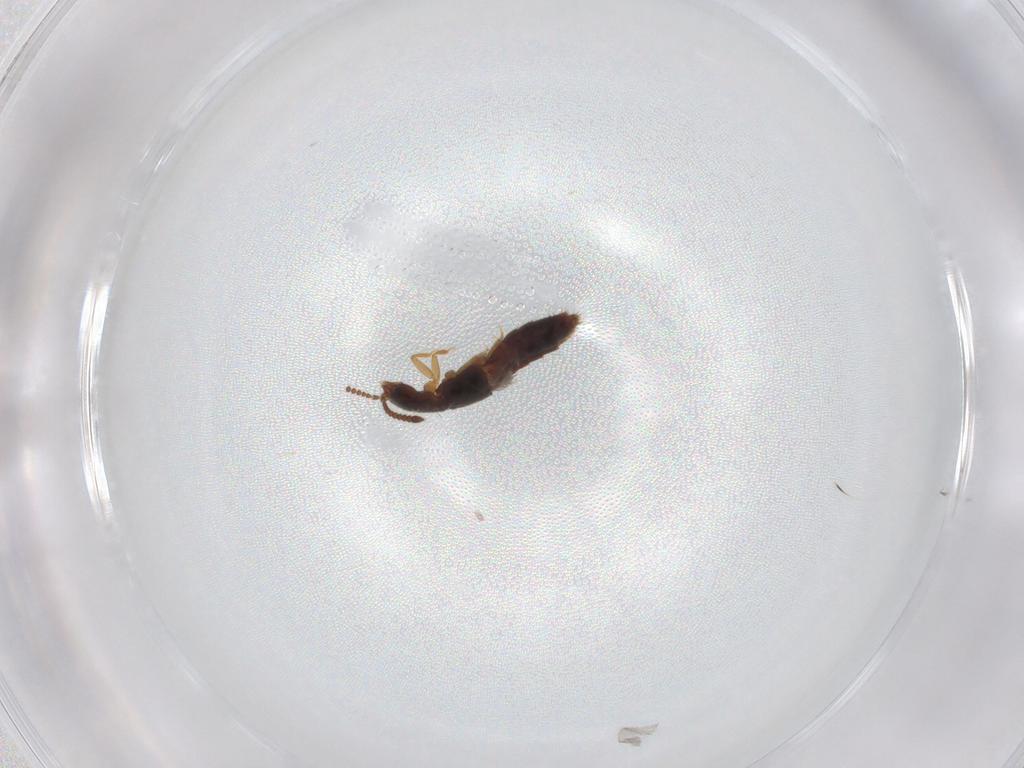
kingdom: Animalia
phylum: Arthropoda
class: Insecta
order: Coleoptera
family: Staphylinidae
